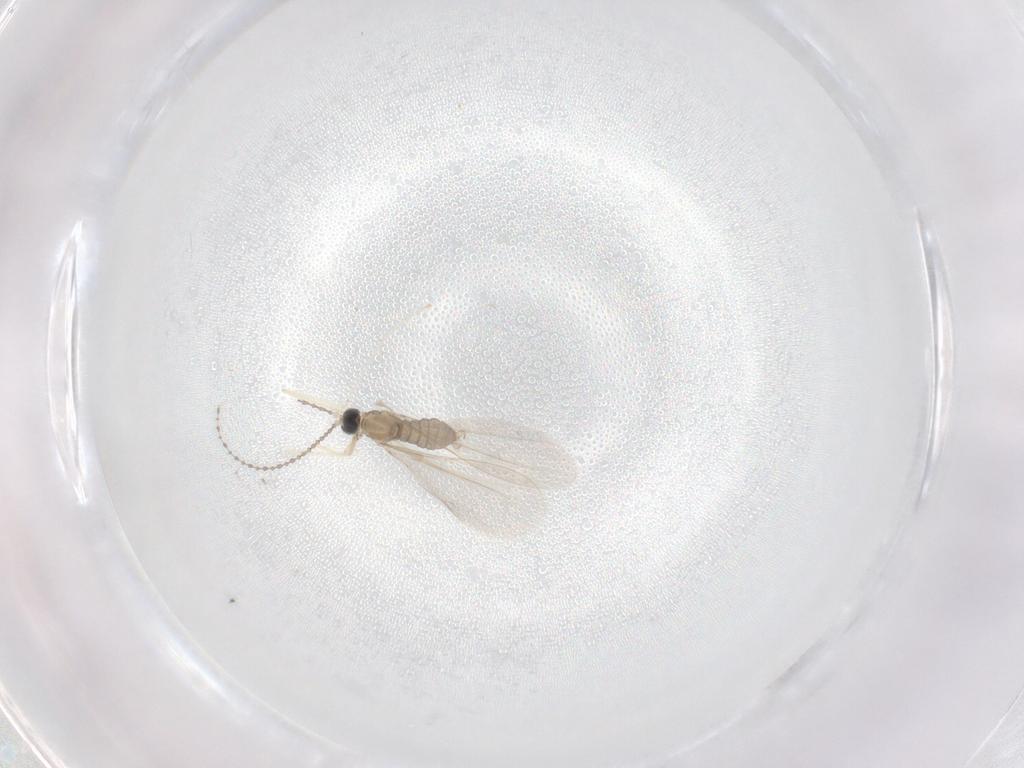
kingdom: Animalia
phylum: Arthropoda
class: Insecta
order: Diptera
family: Cecidomyiidae
